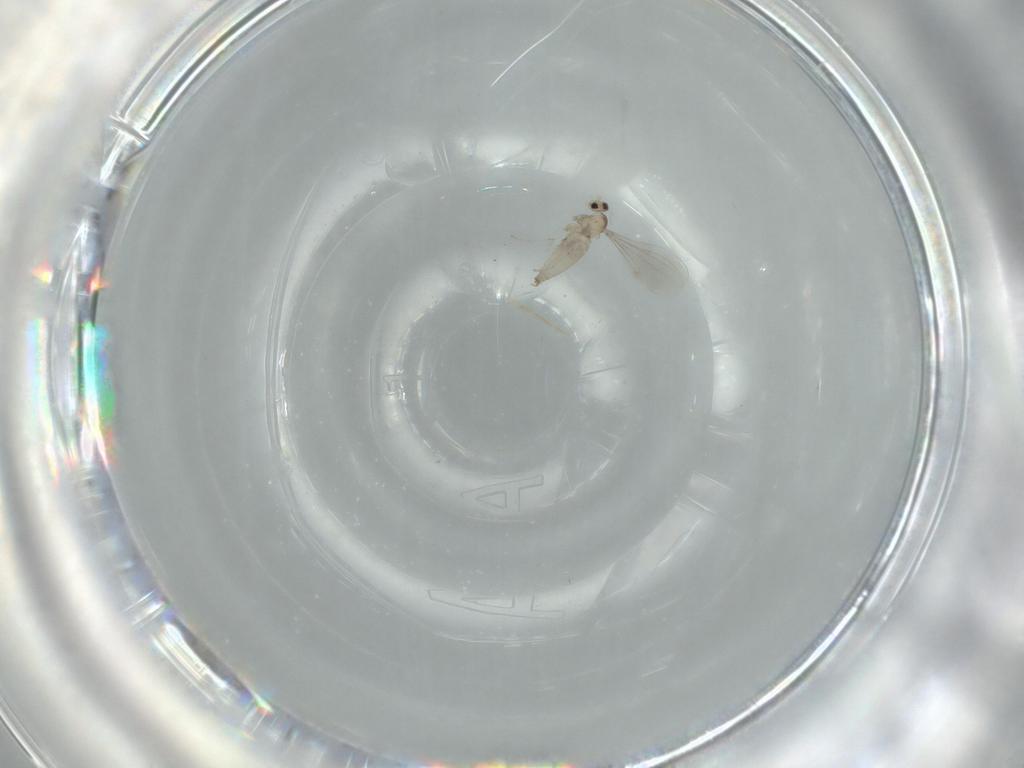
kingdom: Animalia
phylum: Arthropoda
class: Insecta
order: Diptera
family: Cecidomyiidae
